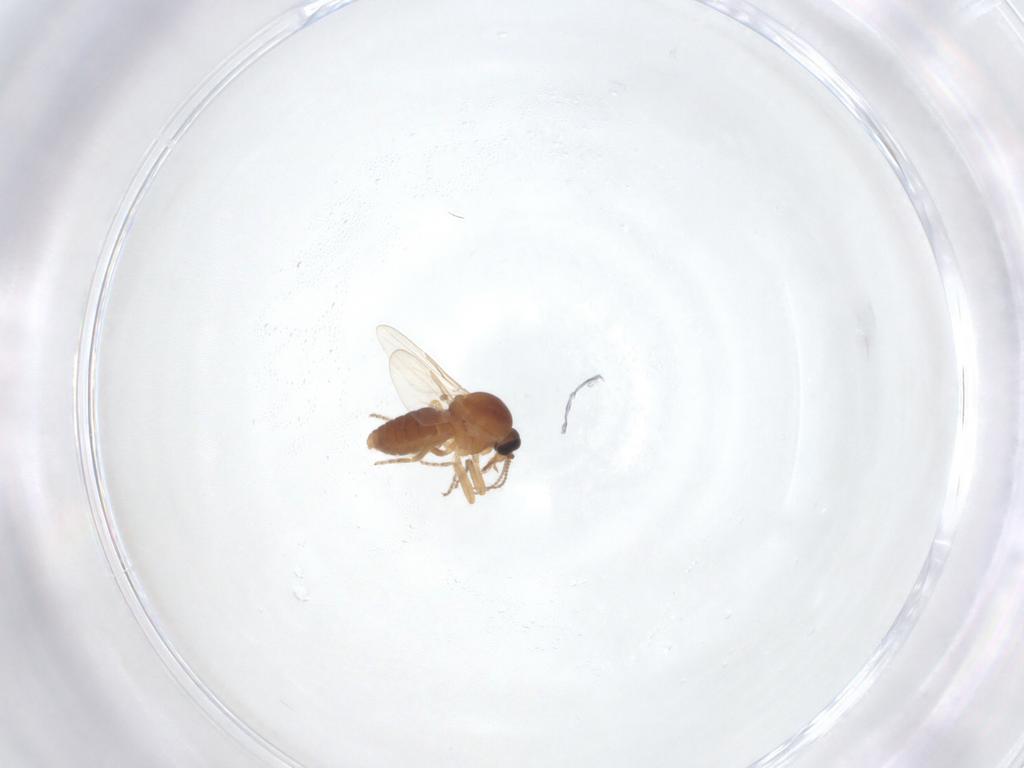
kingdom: Animalia
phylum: Arthropoda
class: Insecta
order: Diptera
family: Ceratopogonidae
